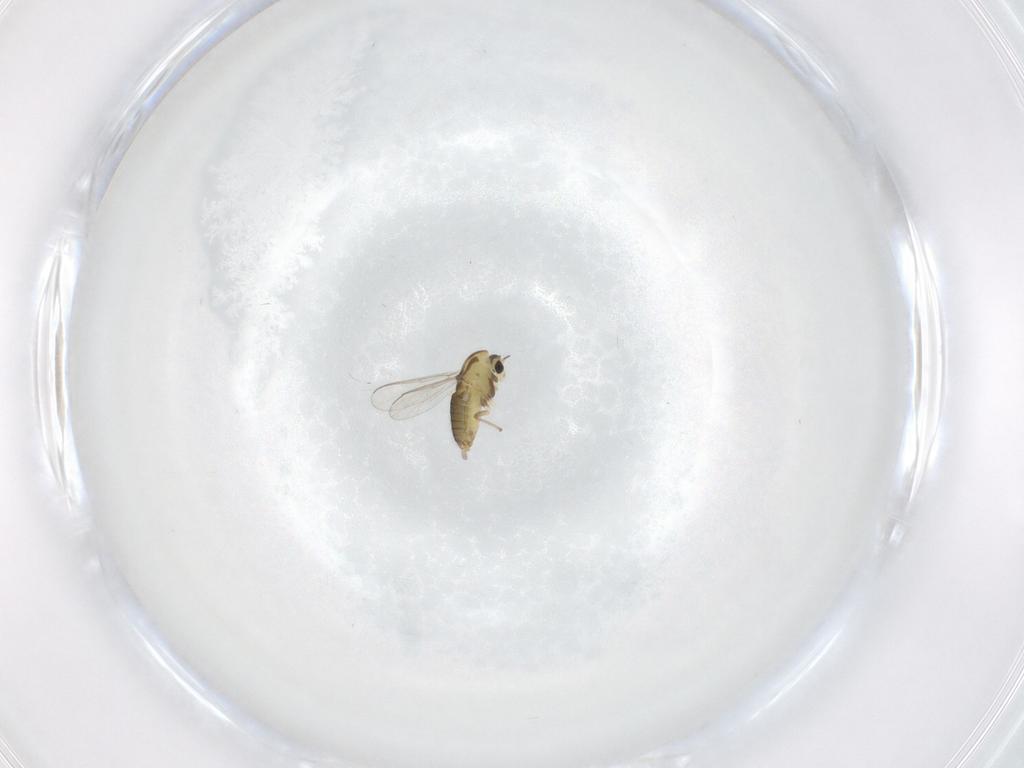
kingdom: Animalia
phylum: Arthropoda
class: Insecta
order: Diptera
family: Chironomidae
